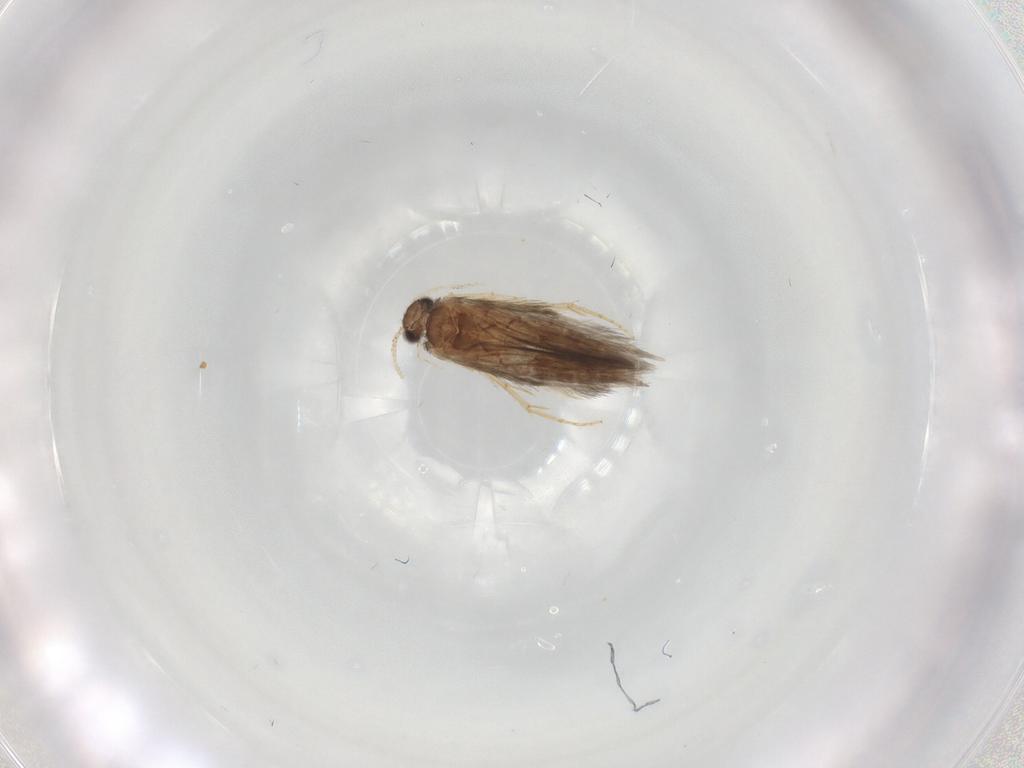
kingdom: Animalia
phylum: Arthropoda
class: Insecta
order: Trichoptera
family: Hydroptilidae
